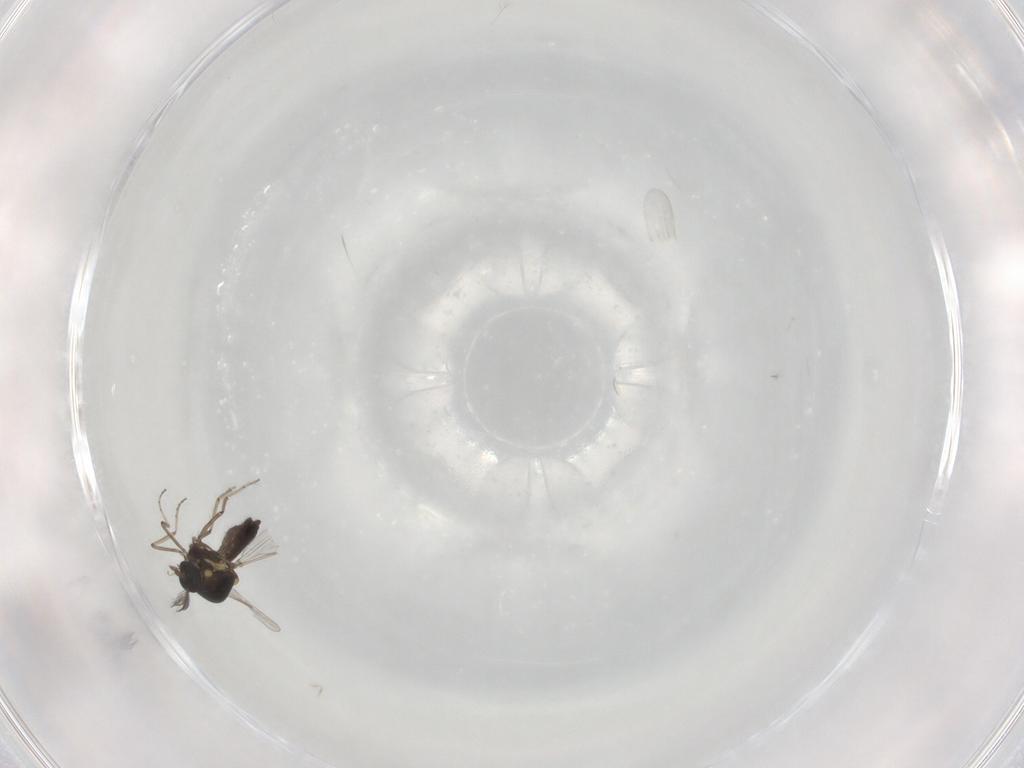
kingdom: Animalia
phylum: Arthropoda
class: Insecta
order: Diptera
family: Ceratopogonidae
